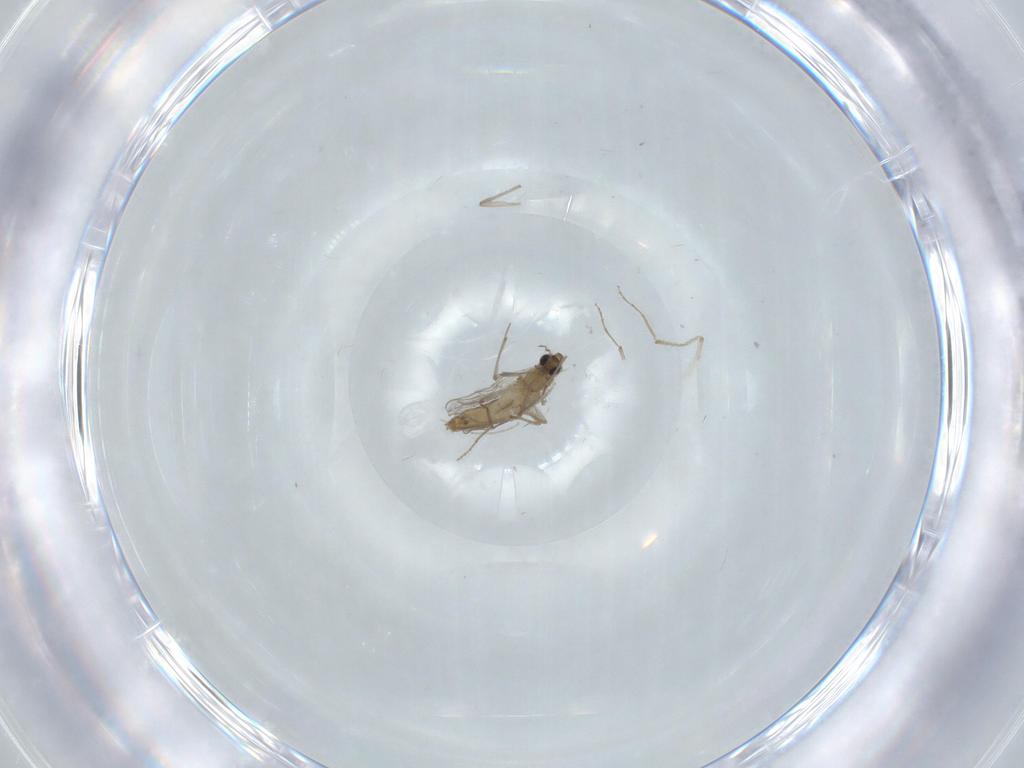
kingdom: Animalia
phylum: Arthropoda
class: Insecta
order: Diptera
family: Chironomidae
